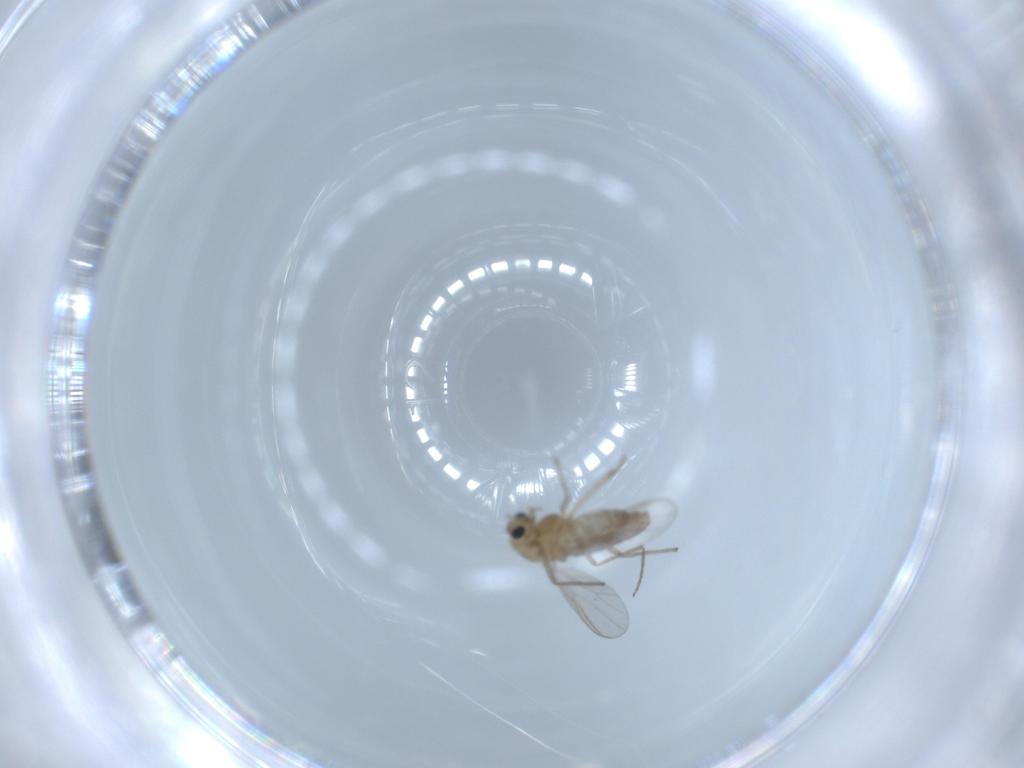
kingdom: Animalia
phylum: Arthropoda
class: Insecta
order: Diptera
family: Chironomidae
